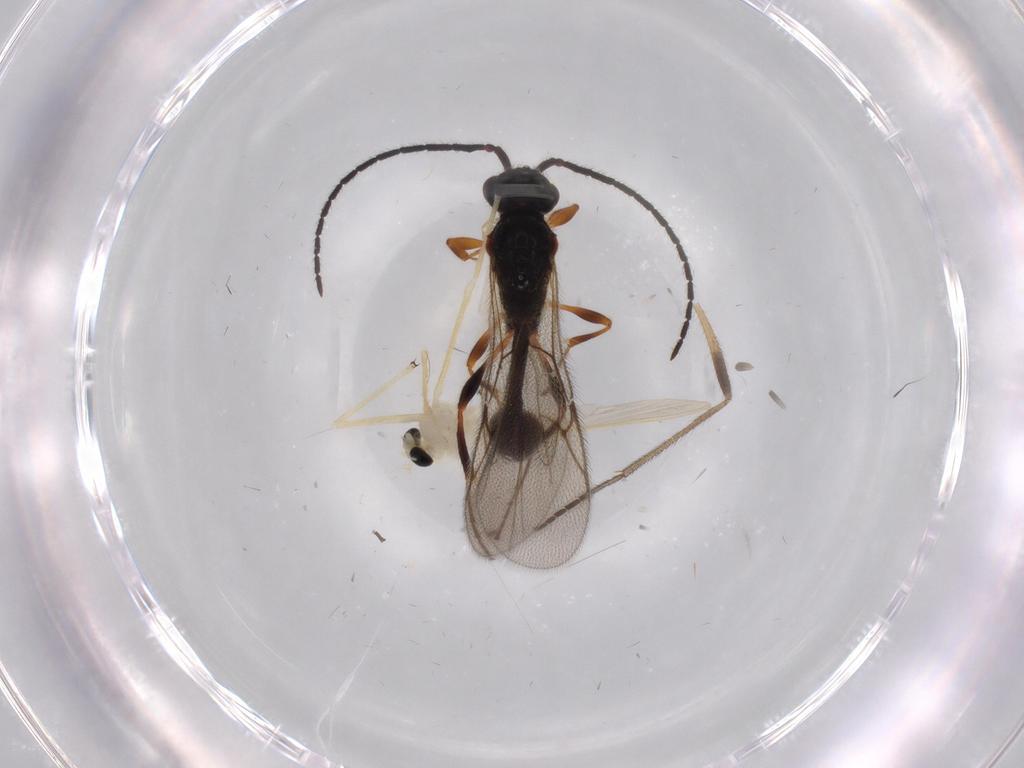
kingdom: Animalia
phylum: Arthropoda
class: Insecta
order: Diptera
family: Chironomidae
